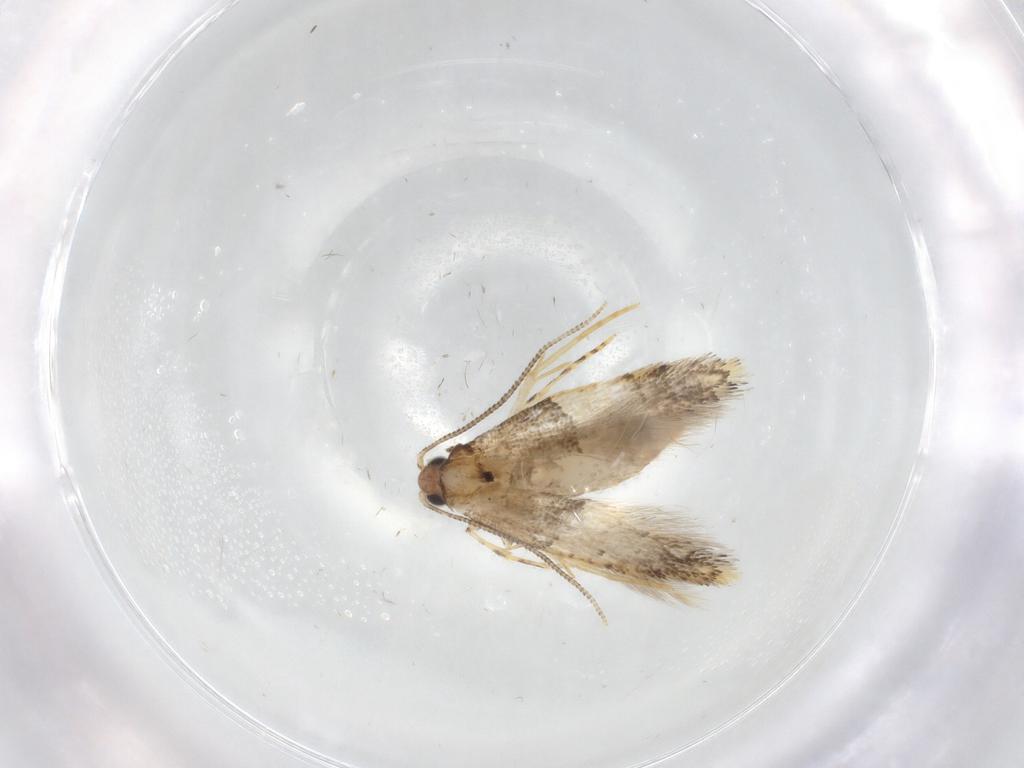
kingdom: Animalia
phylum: Arthropoda
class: Insecta
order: Lepidoptera
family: Tineidae
